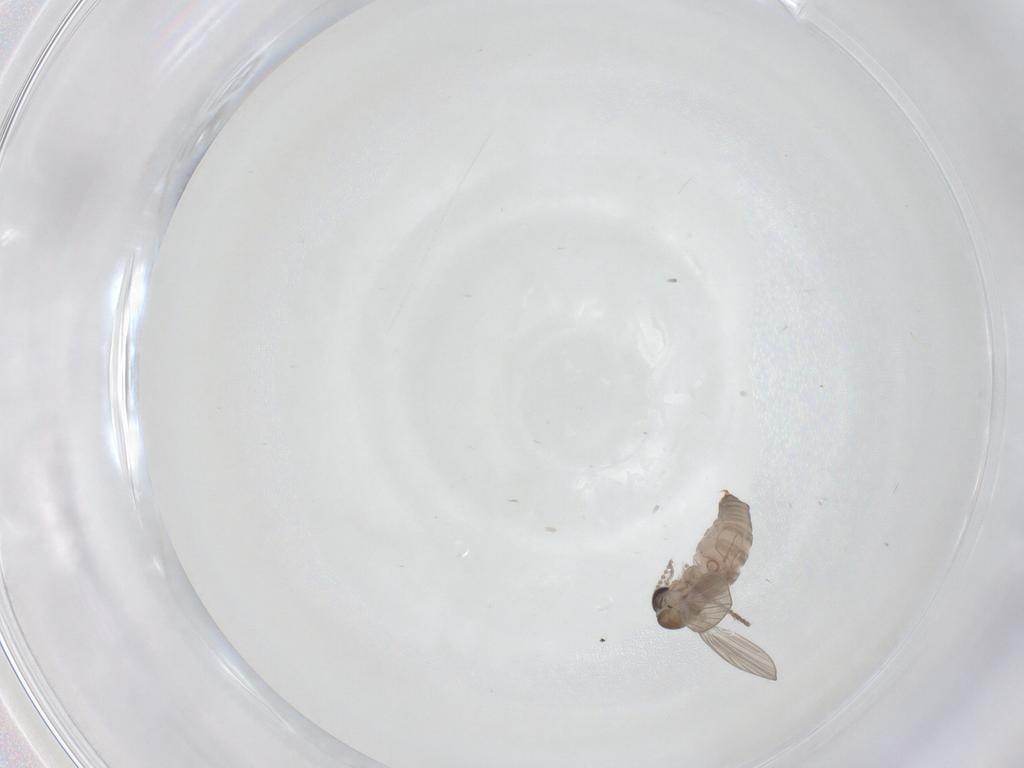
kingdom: Animalia
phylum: Arthropoda
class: Insecta
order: Diptera
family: Psychodidae
